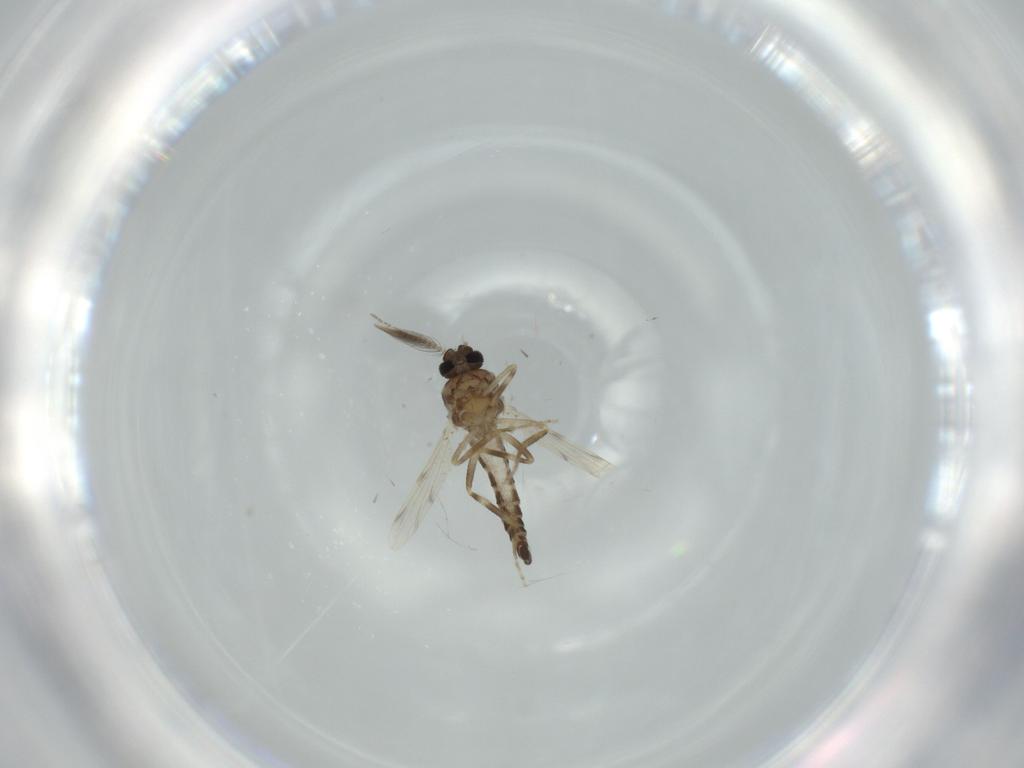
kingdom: Animalia
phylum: Arthropoda
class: Insecta
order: Diptera
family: Ceratopogonidae
